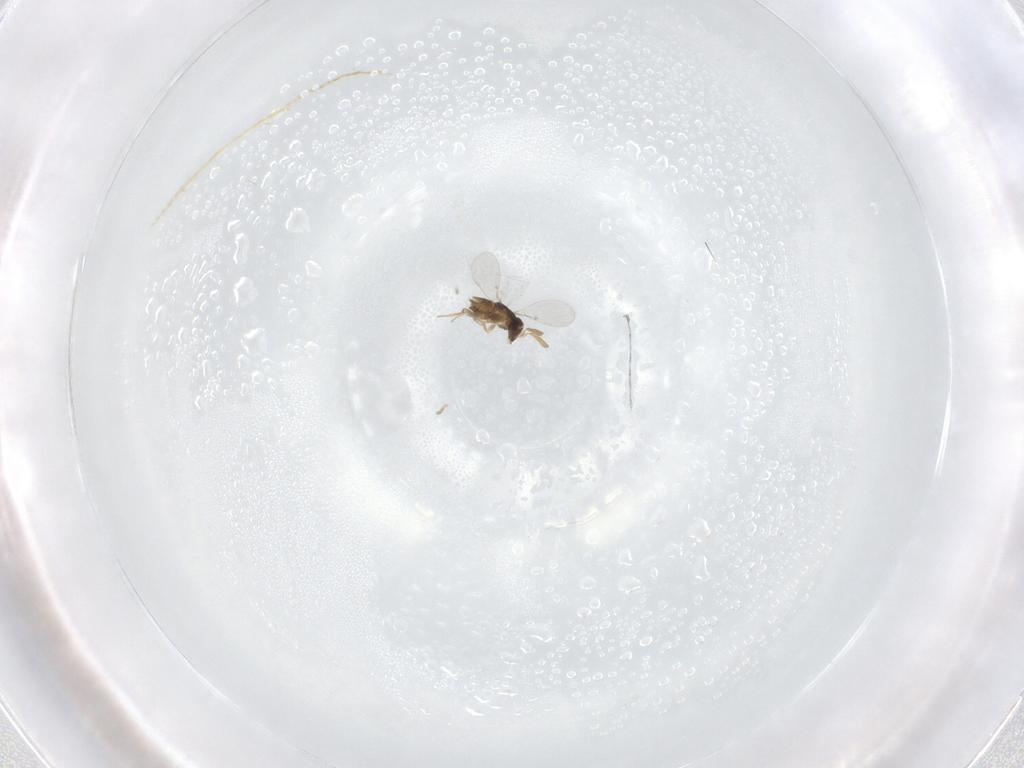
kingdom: Animalia
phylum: Arthropoda
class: Insecta
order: Hymenoptera
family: Encyrtidae
